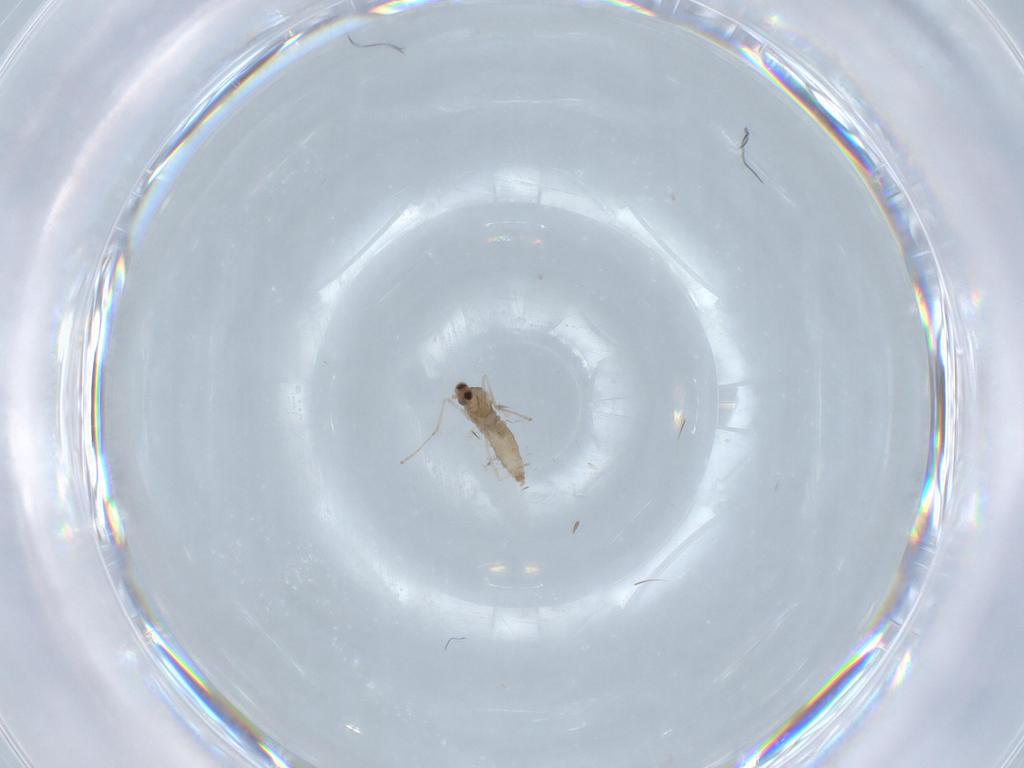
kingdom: Animalia
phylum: Arthropoda
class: Insecta
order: Diptera
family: Cecidomyiidae
